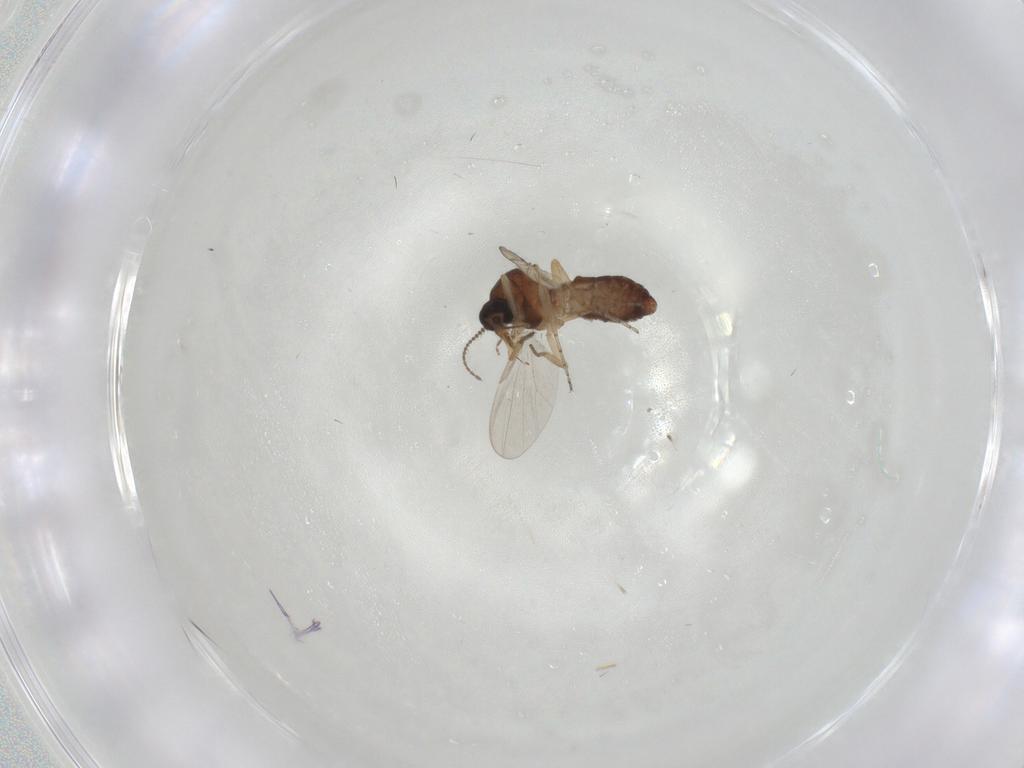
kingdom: Animalia
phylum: Arthropoda
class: Insecta
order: Diptera
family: Ceratopogonidae
